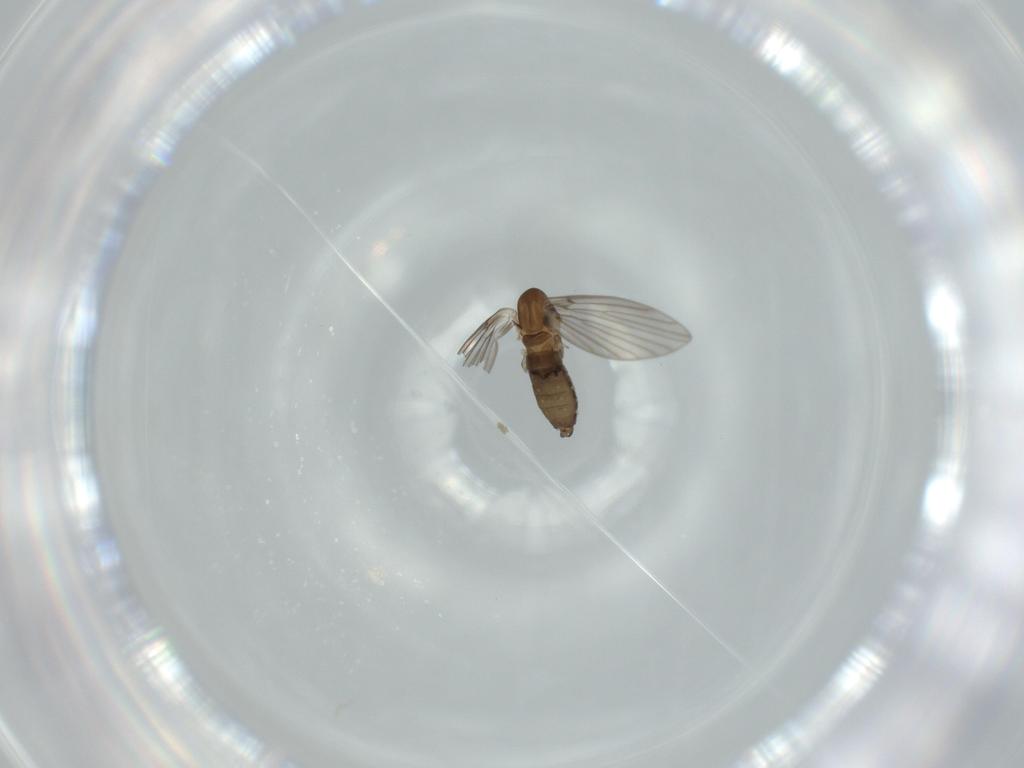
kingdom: Animalia
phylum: Arthropoda
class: Insecta
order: Diptera
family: Psychodidae
